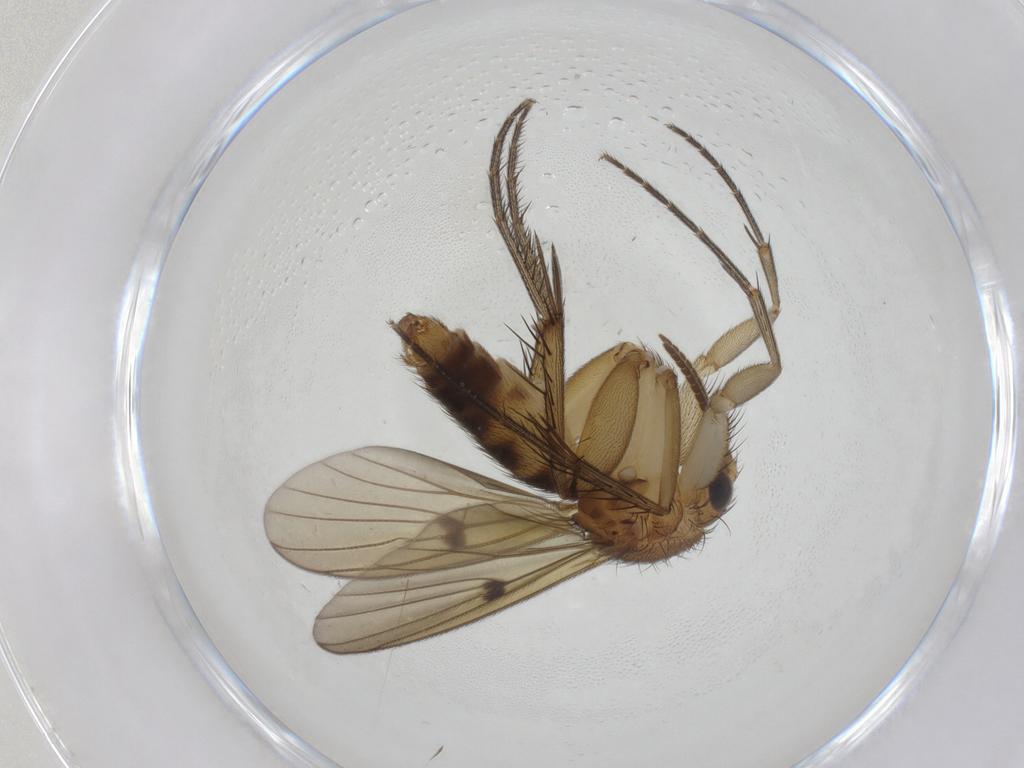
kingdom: Animalia
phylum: Arthropoda
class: Insecta
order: Diptera
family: Mycetophilidae
